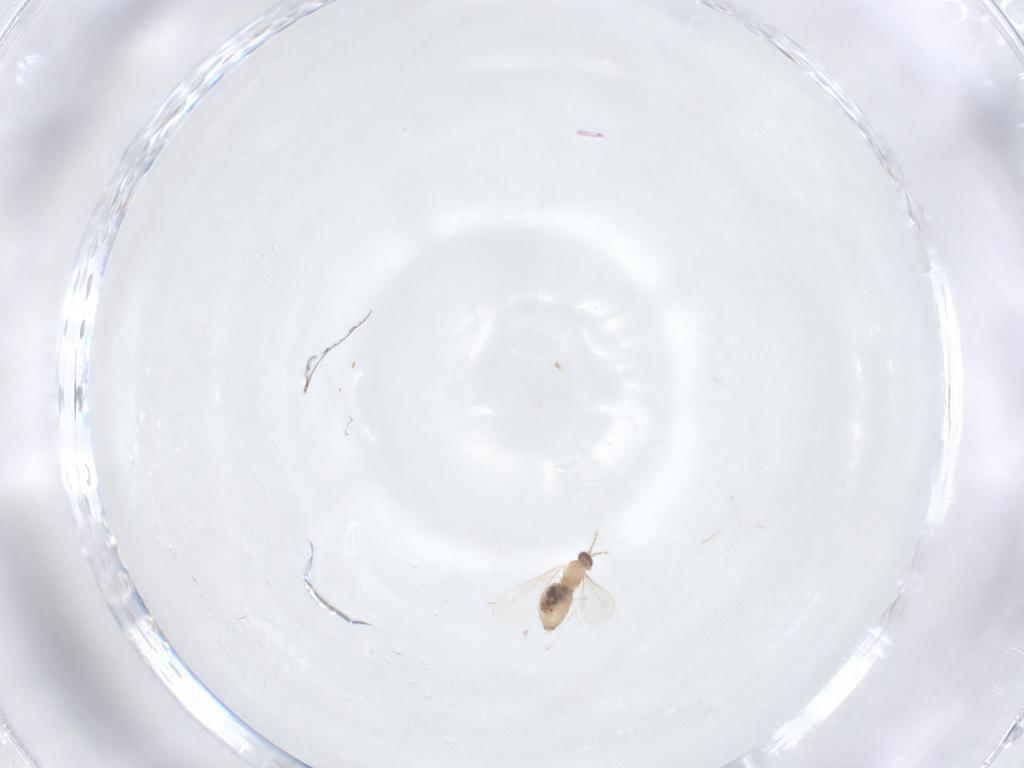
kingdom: Animalia
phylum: Arthropoda
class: Insecta
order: Diptera
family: Cecidomyiidae
